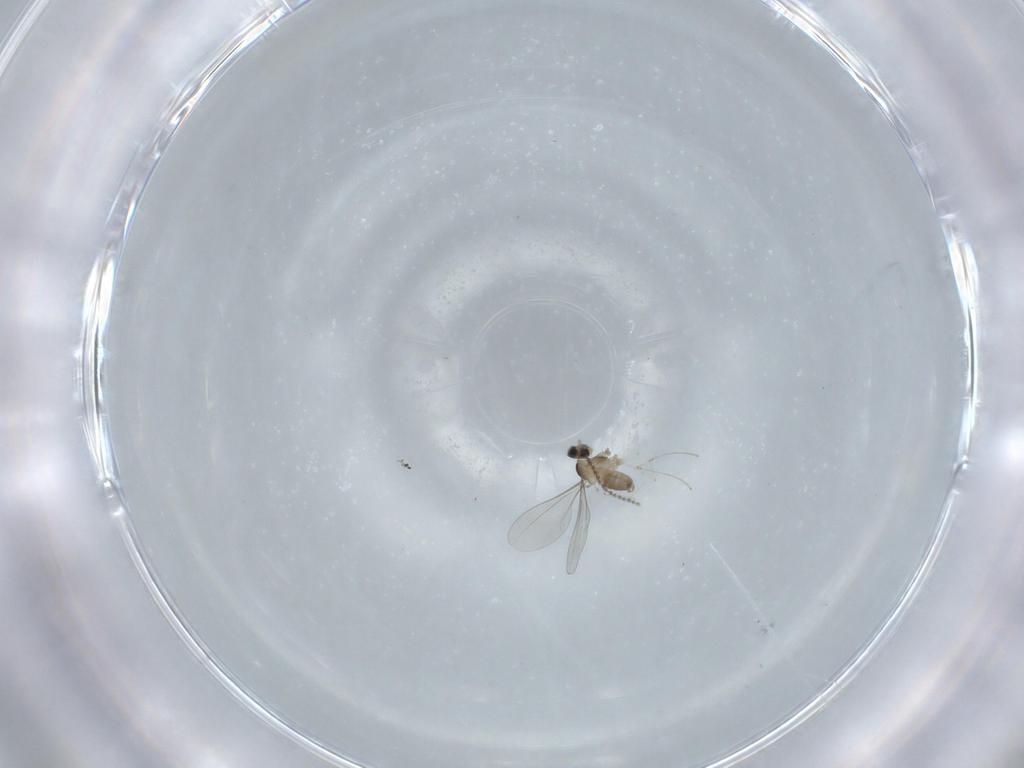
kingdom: Animalia
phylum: Arthropoda
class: Insecta
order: Diptera
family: Cecidomyiidae
